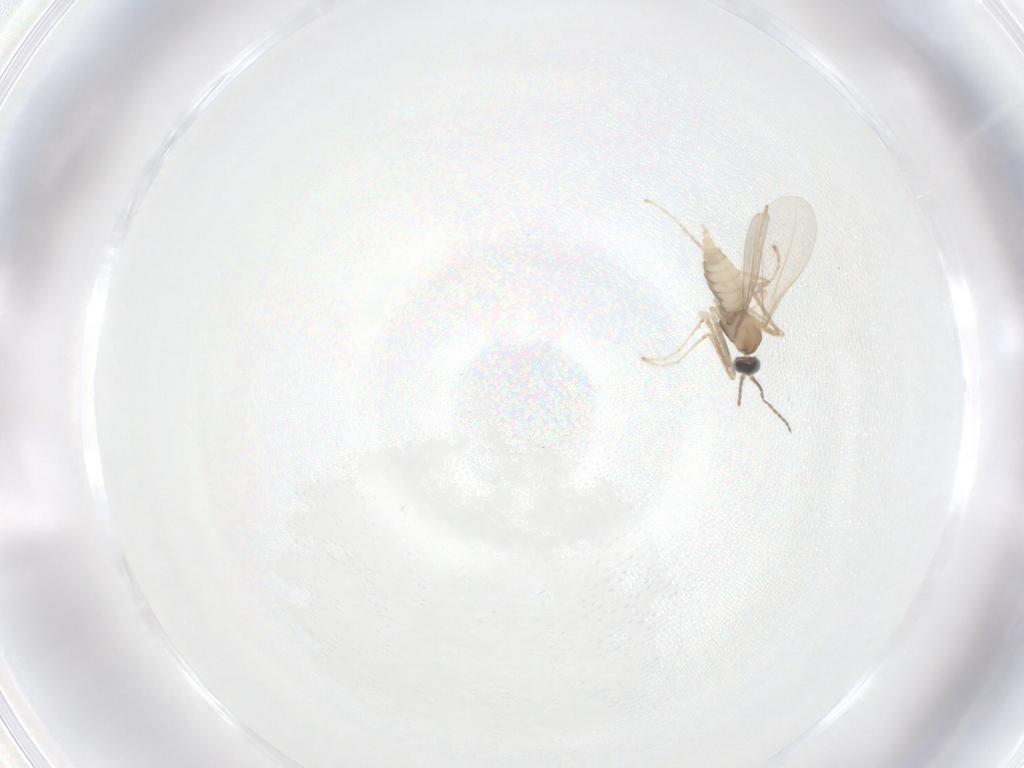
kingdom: Animalia
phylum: Arthropoda
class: Insecta
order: Diptera
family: Cecidomyiidae
